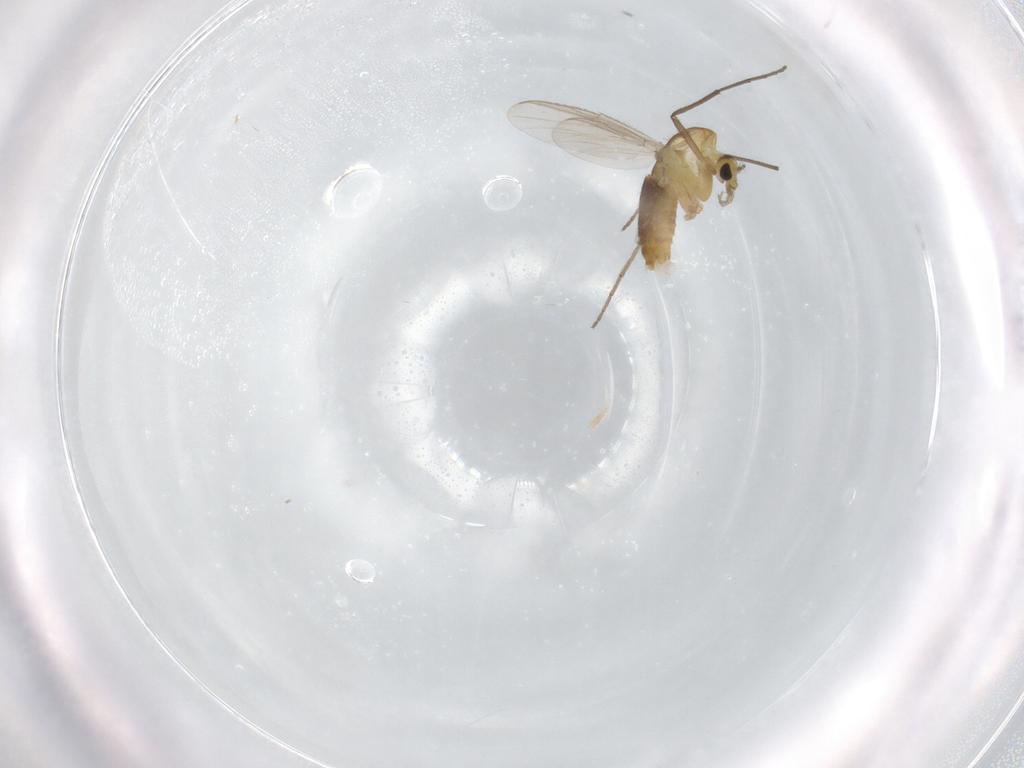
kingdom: Animalia
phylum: Arthropoda
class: Insecta
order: Diptera
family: Chironomidae
